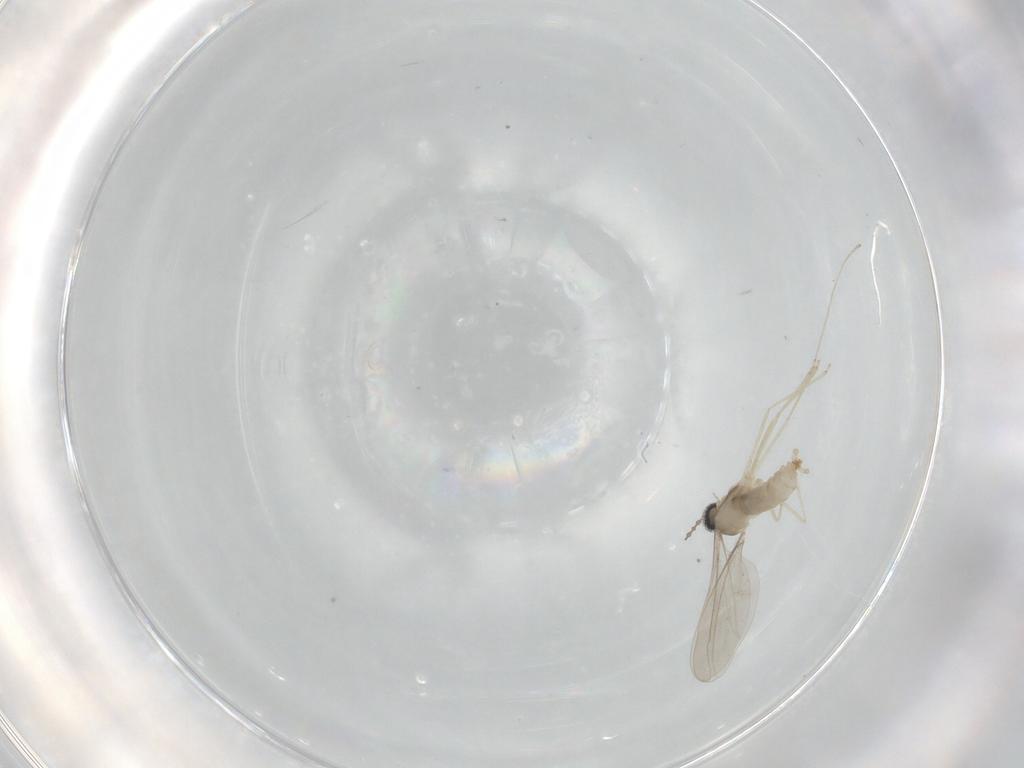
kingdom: Animalia
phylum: Arthropoda
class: Insecta
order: Diptera
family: Cecidomyiidae
